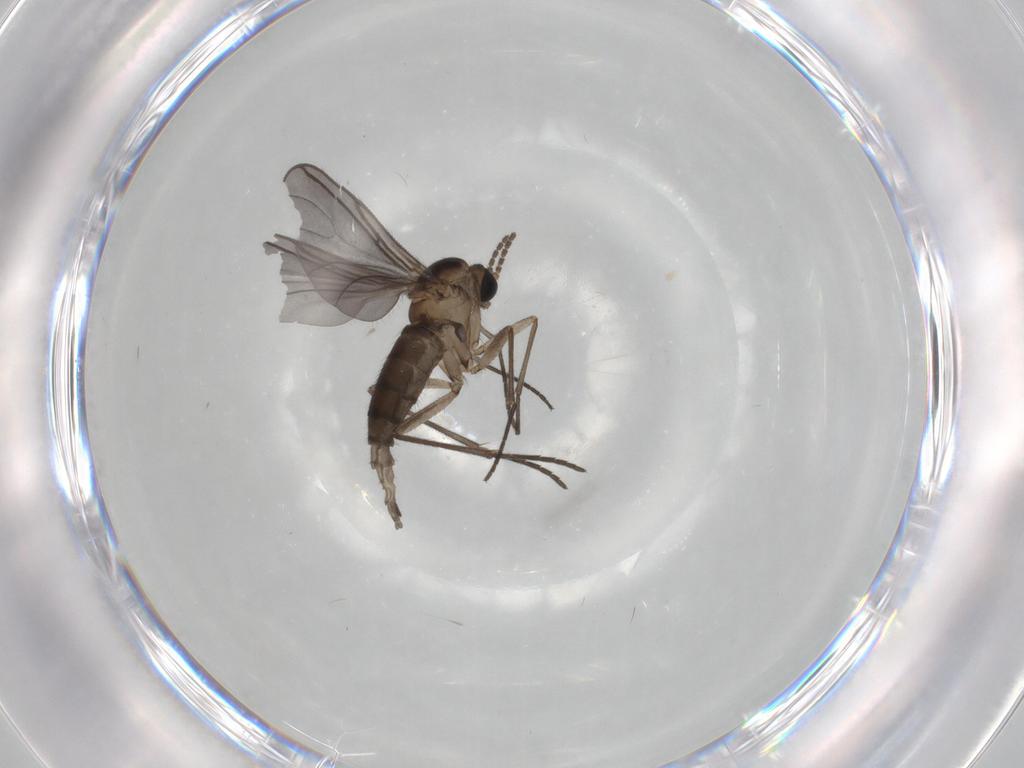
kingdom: Animalia
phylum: Arthropoda
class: Insecta
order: Diptera
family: Sciaridae
